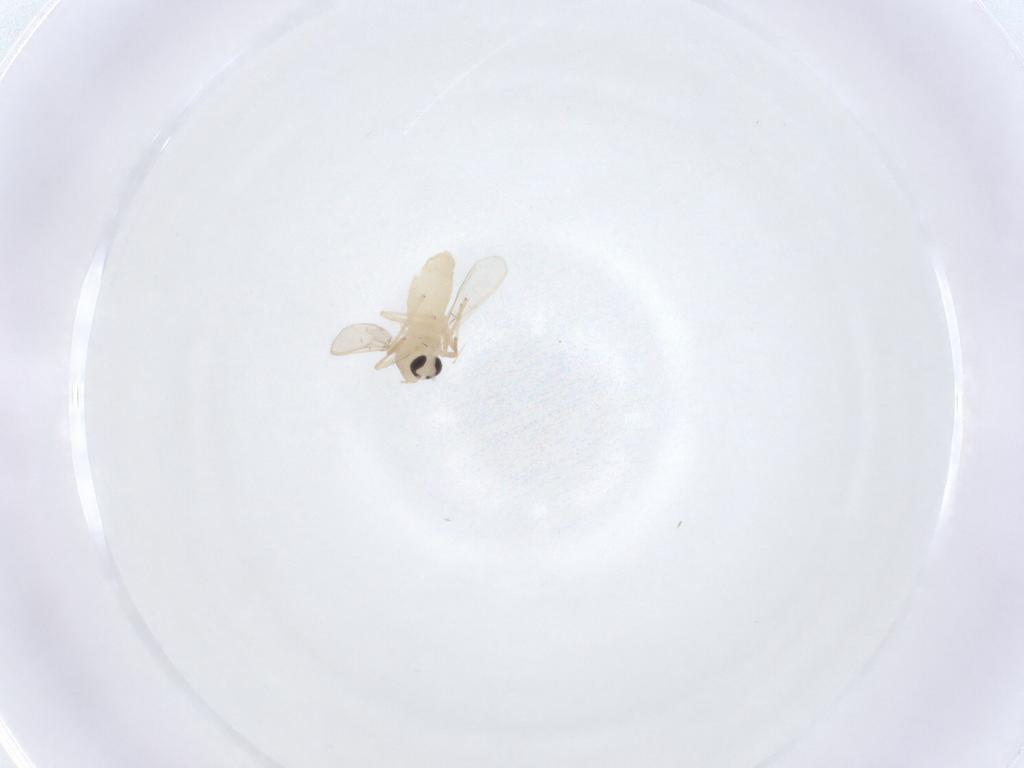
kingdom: Animalia
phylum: Arthropoda
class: Insecta
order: Diptera
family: Chironomidae
